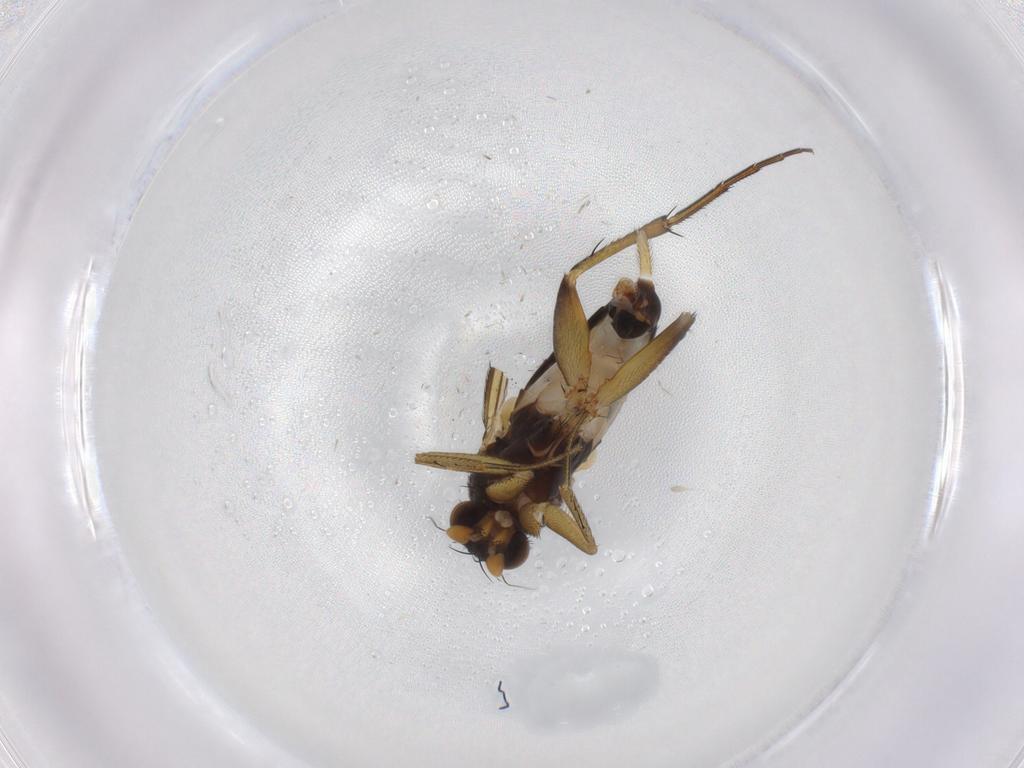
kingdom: Animalia
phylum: Arthropoda
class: Insecta
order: Diptera
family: Phoridae
